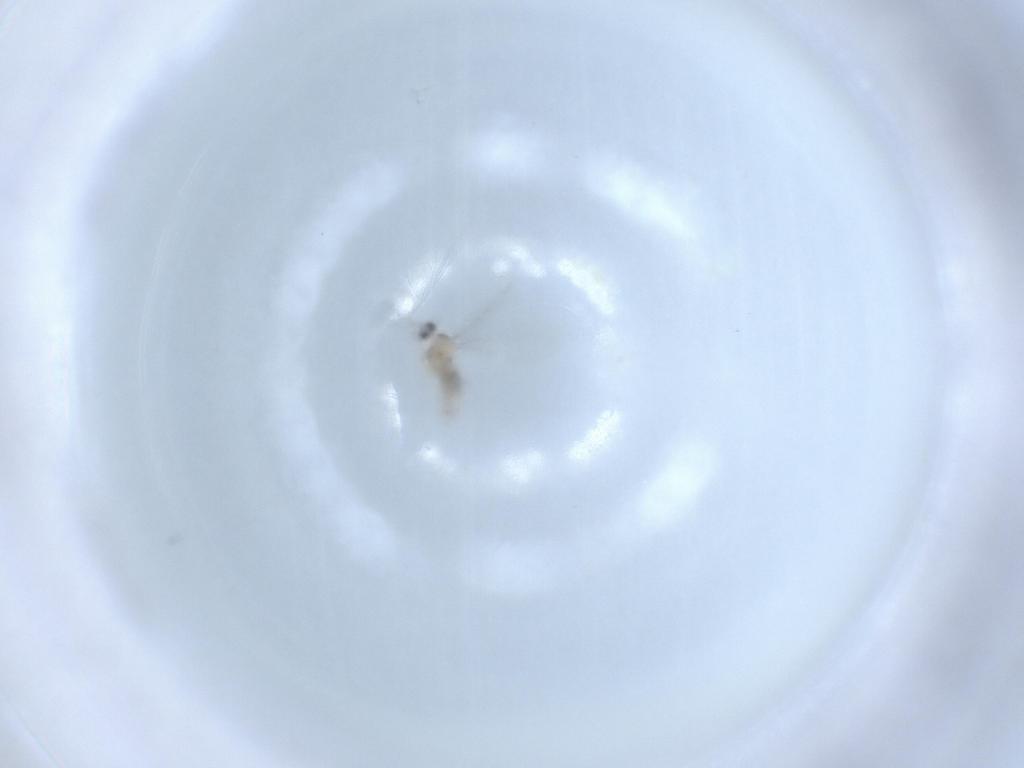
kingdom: Animalia
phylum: Arthropoda
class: Insecta
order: Diptera
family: Cecidomyiidae
